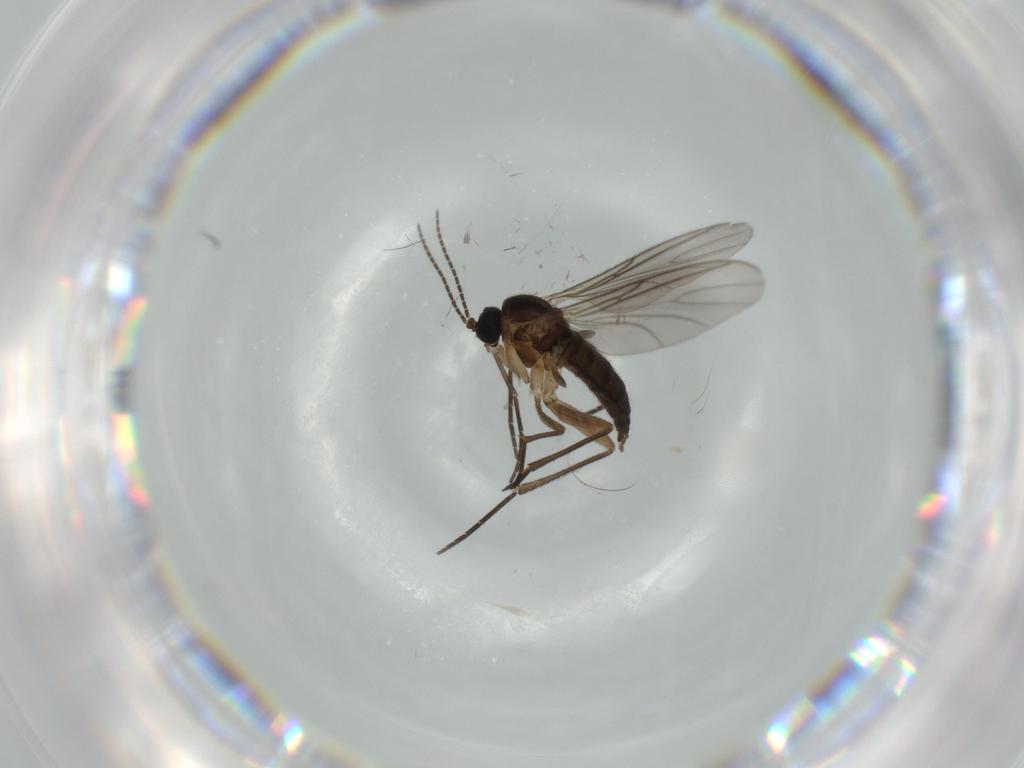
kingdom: Animalia
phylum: Arthropoda
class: Insecta
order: Diptera
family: Sciaridae
